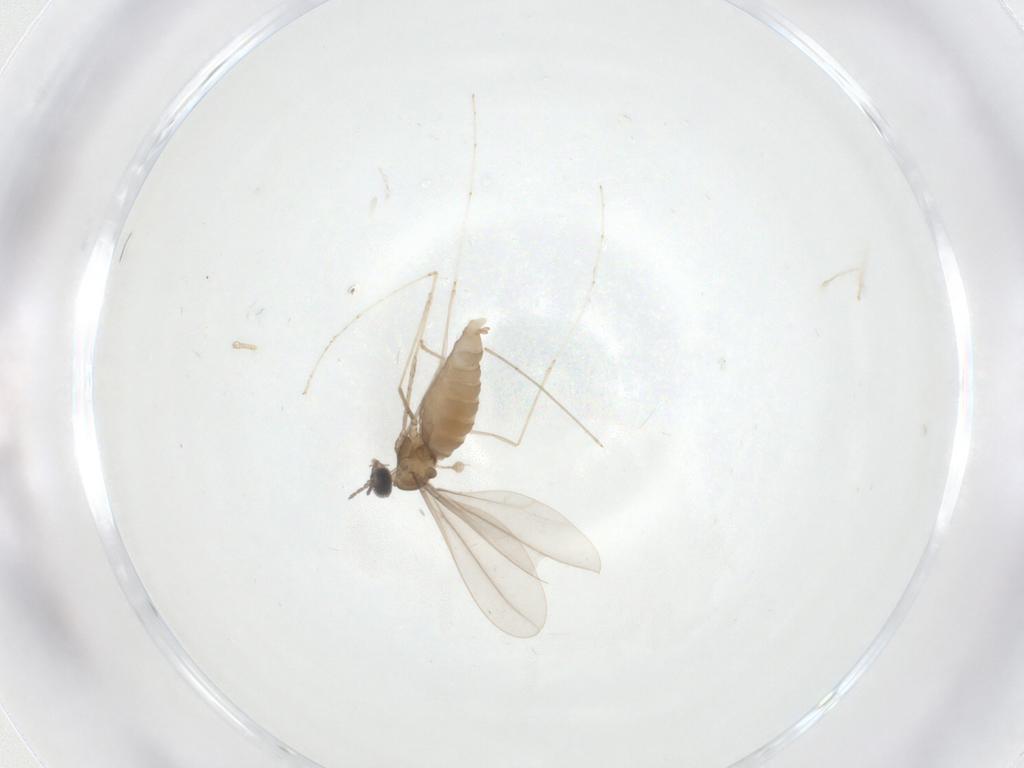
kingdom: Animalia
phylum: Arthropoda
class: Insecta
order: Diptera
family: Cecidomyiidae
